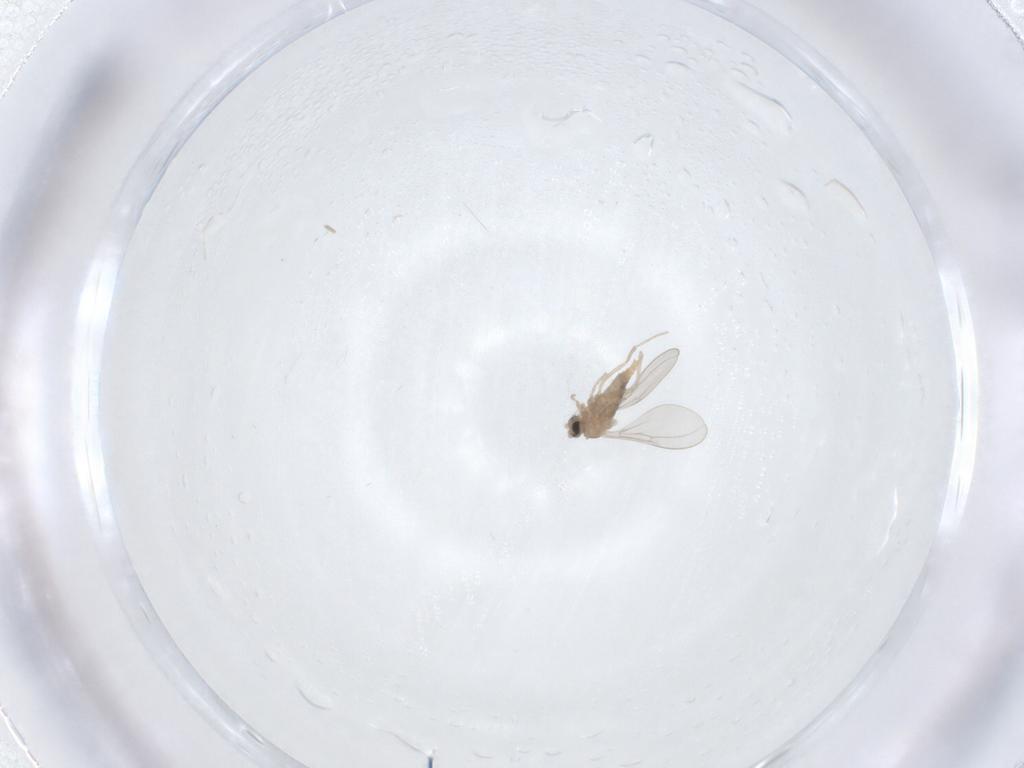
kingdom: Animalia
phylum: Arthropoda
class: Insecta
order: Diptera
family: Cecidomyiidae
